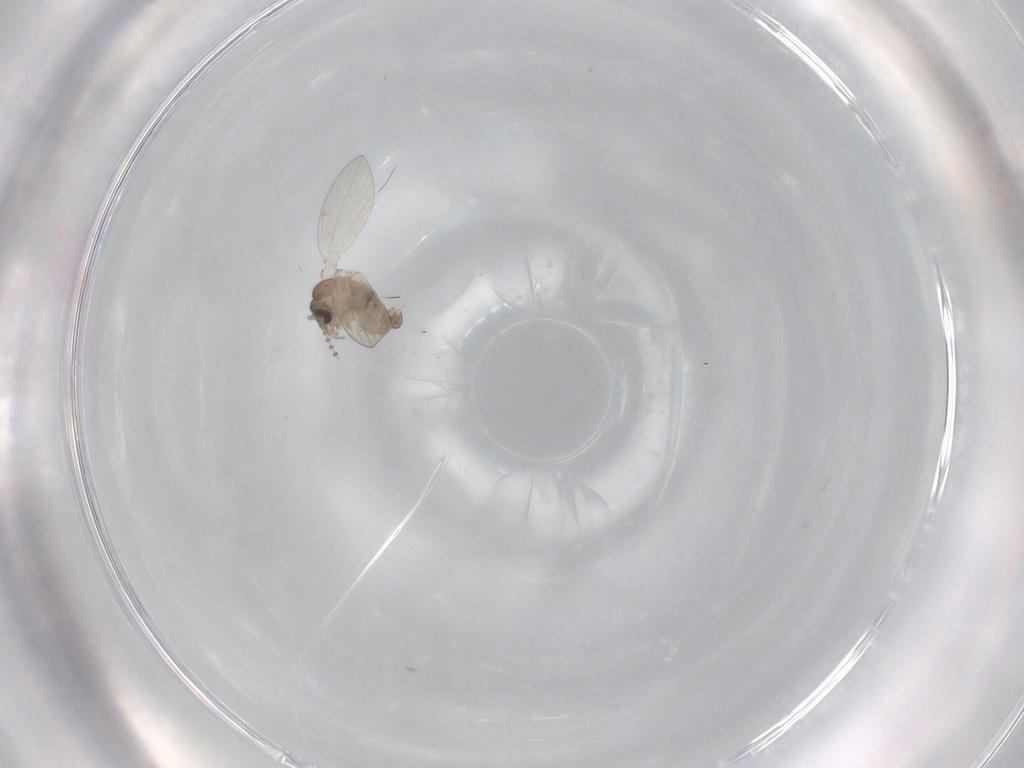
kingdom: Animalia
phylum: Arthropoda
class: Insecta
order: Diptera
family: Psychodidae
